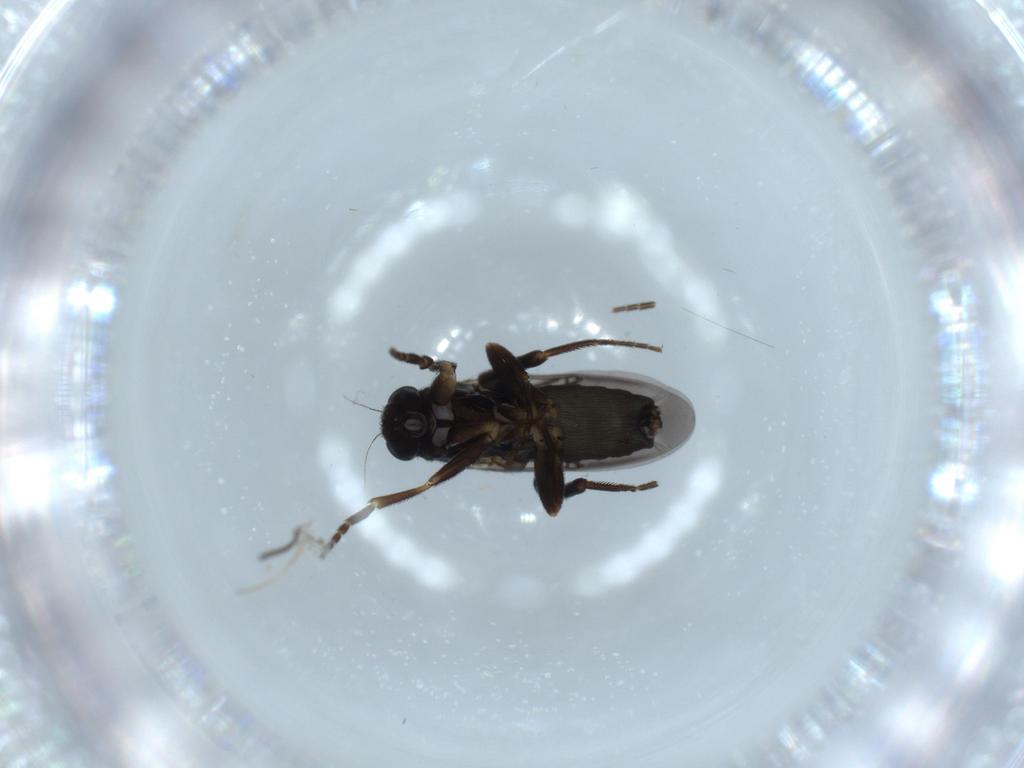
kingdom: Animalia
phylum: Arthropoda
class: Insecta
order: Diptera
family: Phoridae
